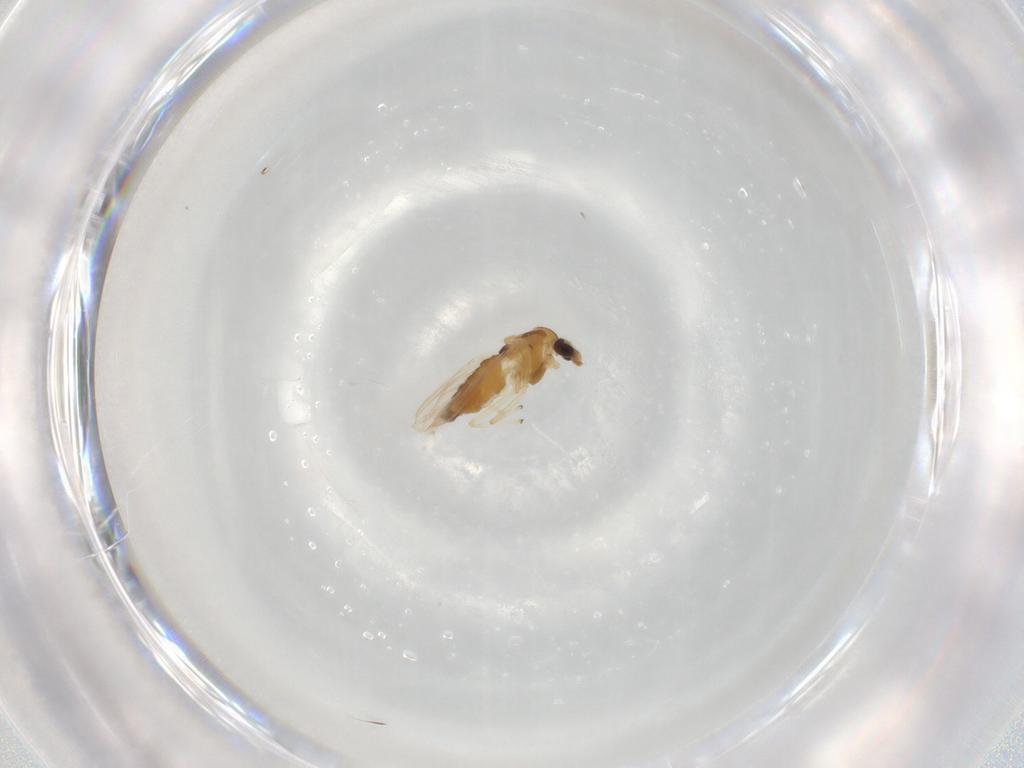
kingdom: Animalia
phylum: Arthropoda
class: Insecta
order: Diptera
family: Chironomidae
